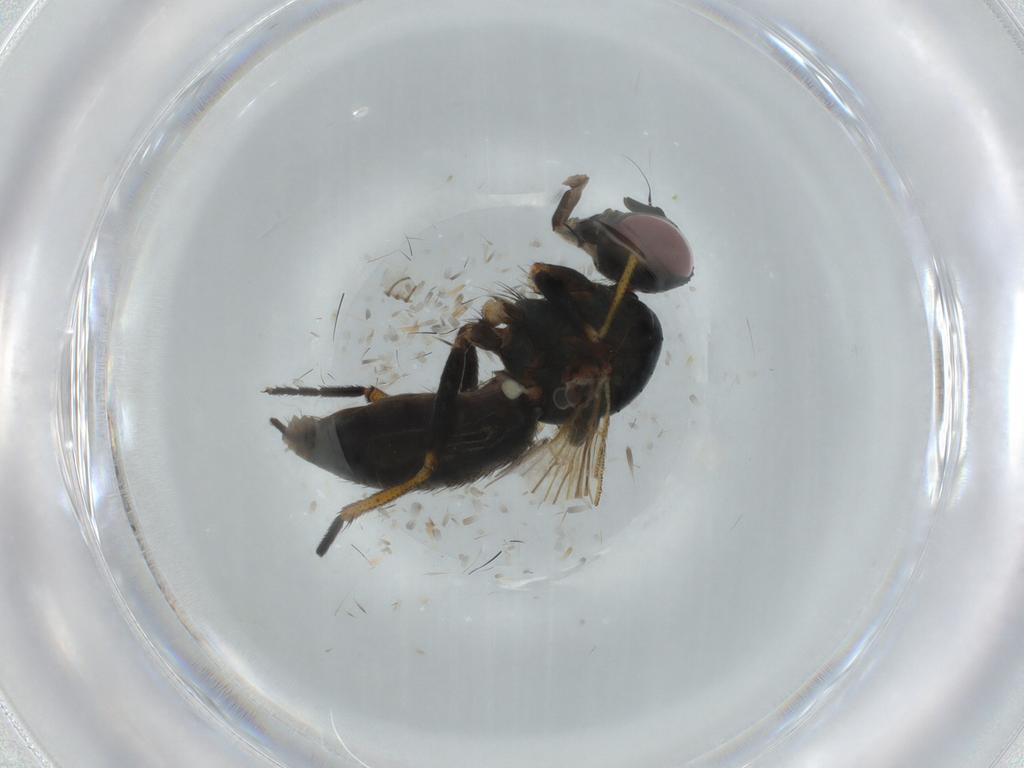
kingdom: Animalia
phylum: Arthropoda
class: Insecta
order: Diptera
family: Muscidae
